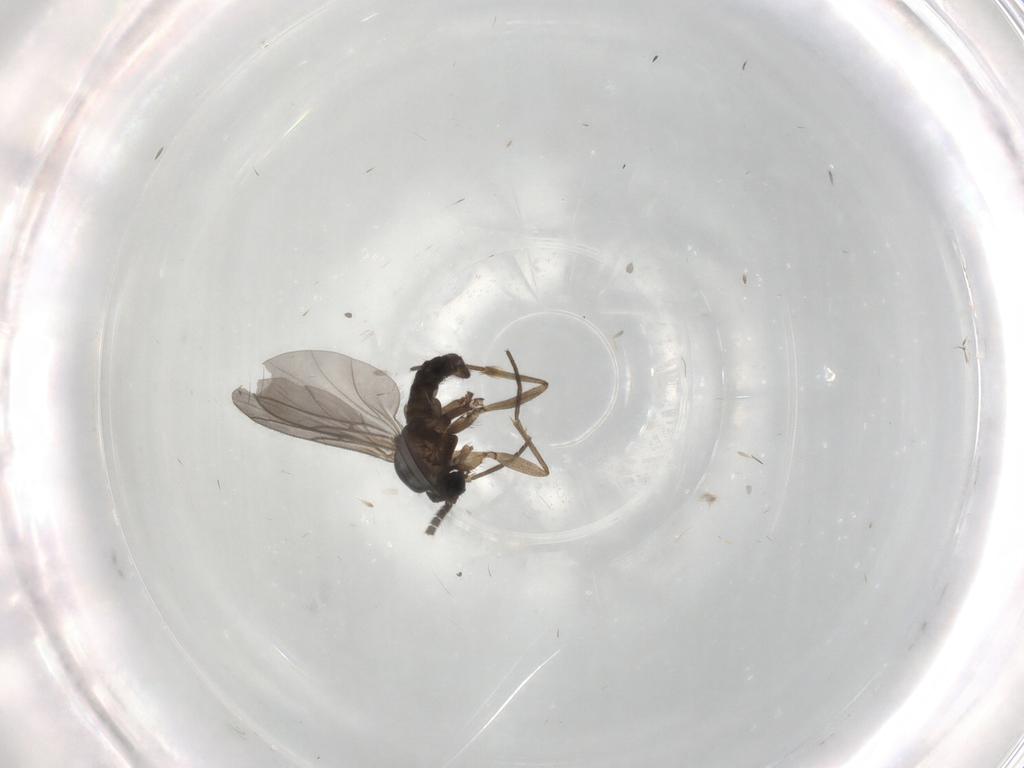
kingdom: Animalia
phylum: Arthropoda
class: Insecta
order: Diptera
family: Sciaridae
